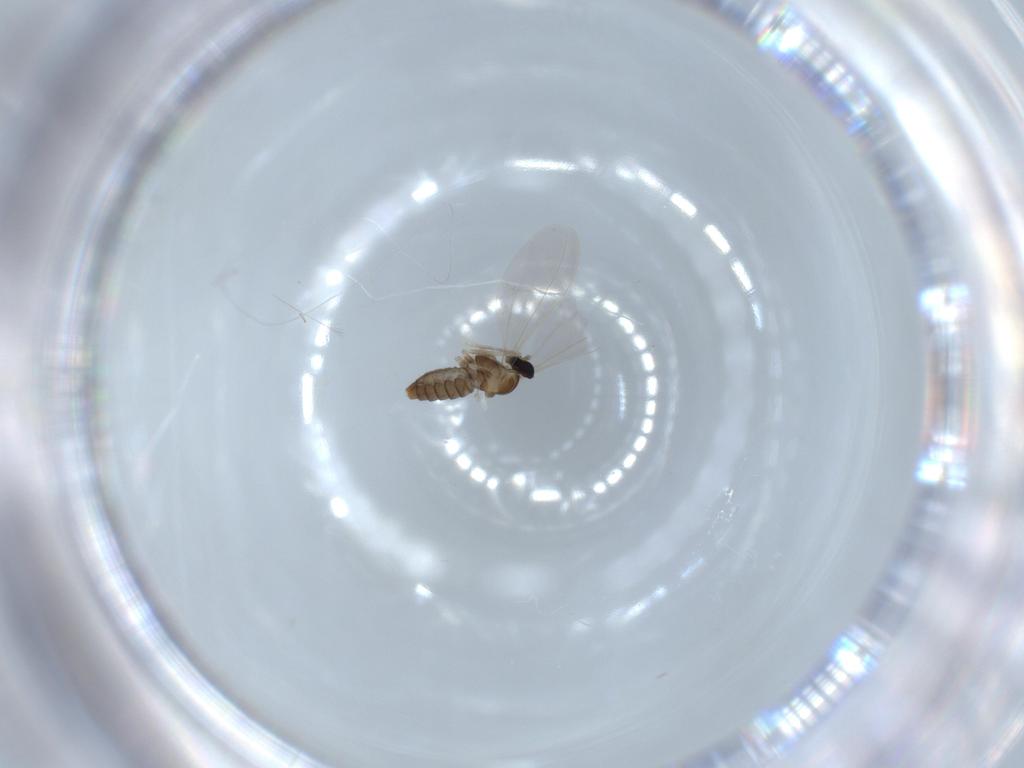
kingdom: Animalia
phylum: Arthropoda
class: Insecta
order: Diptera
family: Cecidomyiidae
